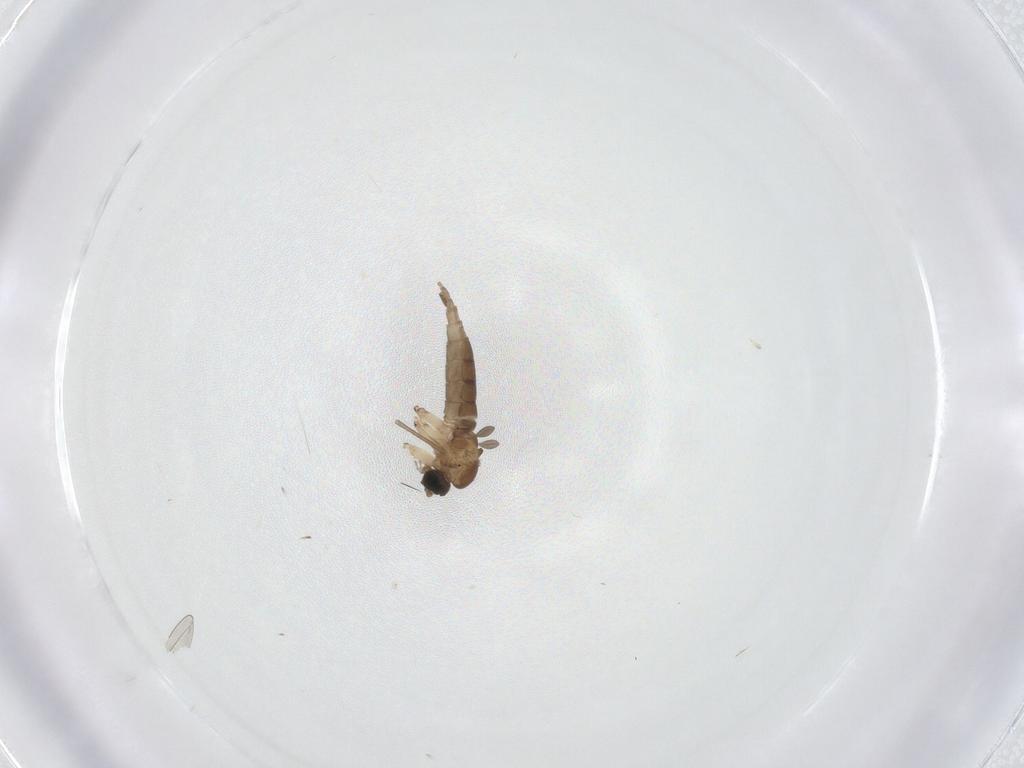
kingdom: Animalia
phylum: Arthropoda
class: Insecta
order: Diptera
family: Sciaridae
